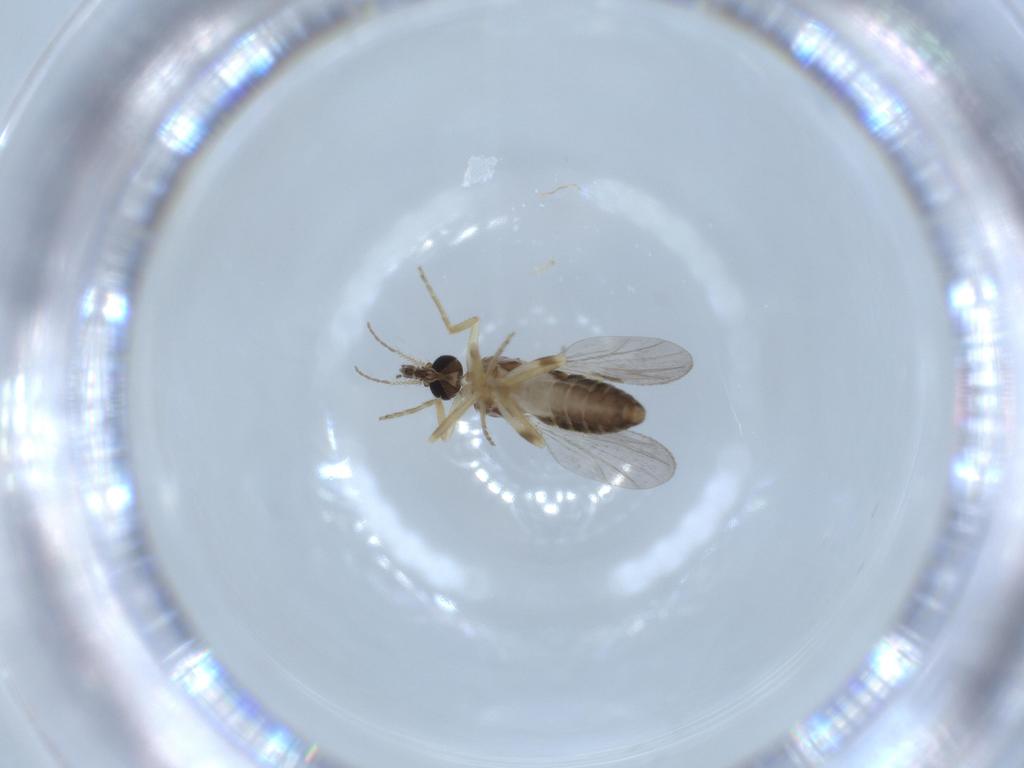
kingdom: Animalia
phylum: Arthropoda
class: Insecta
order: Diptera
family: Ceratopogonidae
